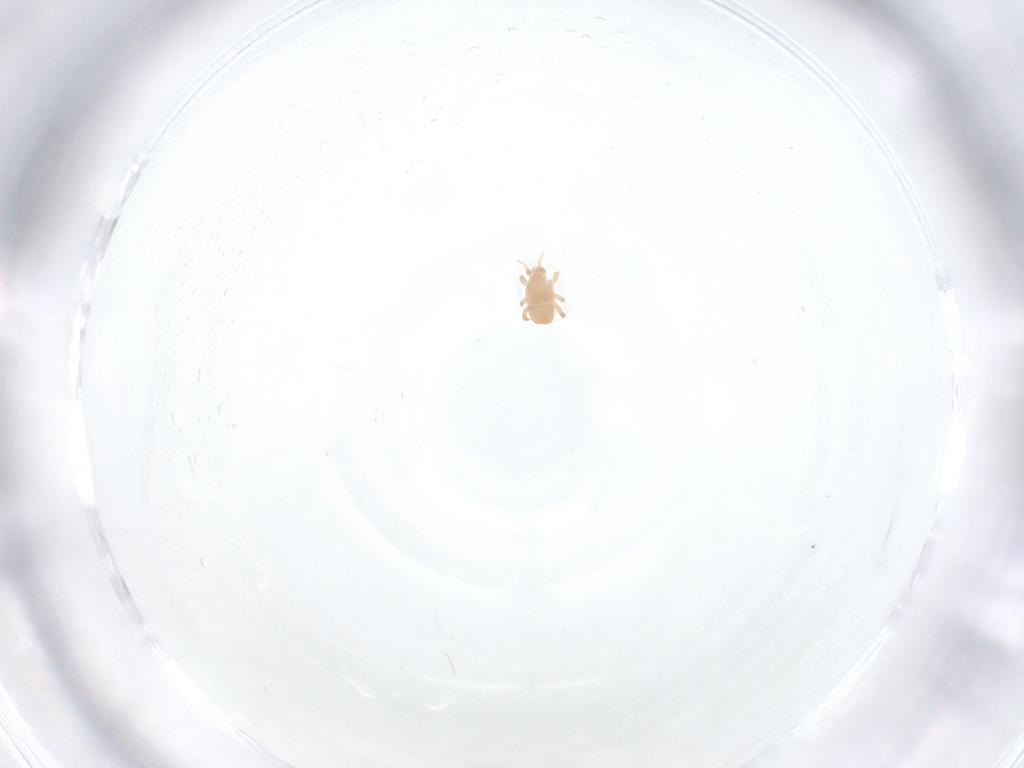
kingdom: Animalia
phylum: Arthropoda
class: Arachnida
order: Mesostigmata
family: Halolaelapidae
